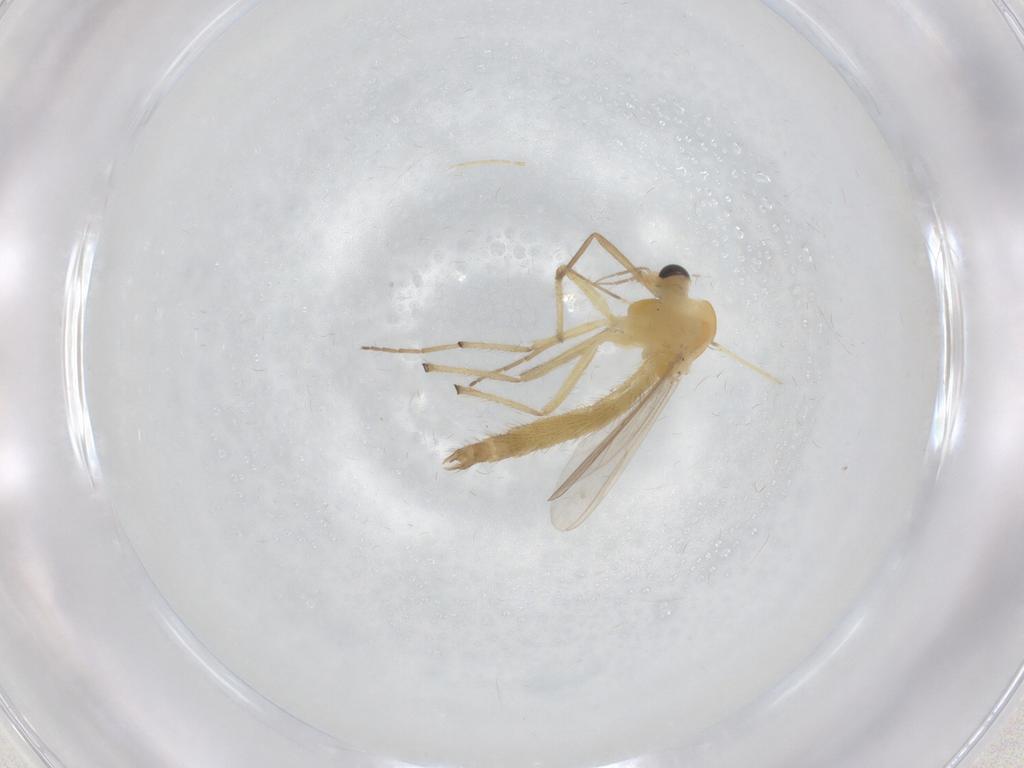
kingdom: Animalia
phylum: Arthropoda
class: Insecta
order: Diptera
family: Chironomidae
